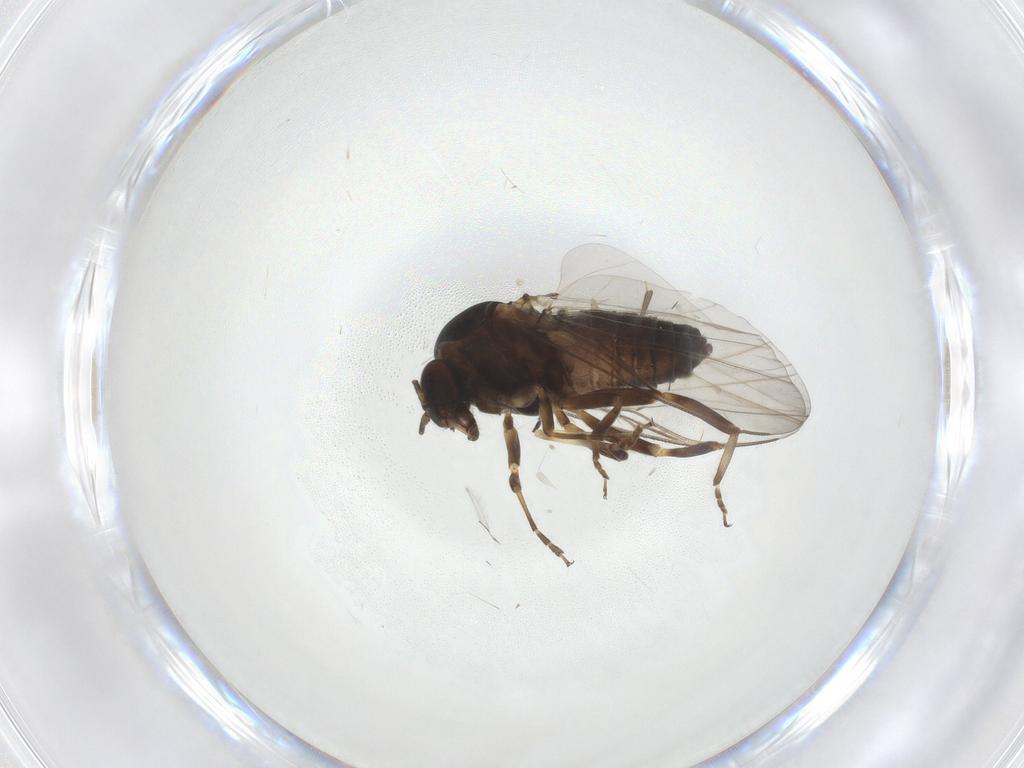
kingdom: Animalia
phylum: Arthropoda
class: Insecta
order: Diptera
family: Simuliidae
